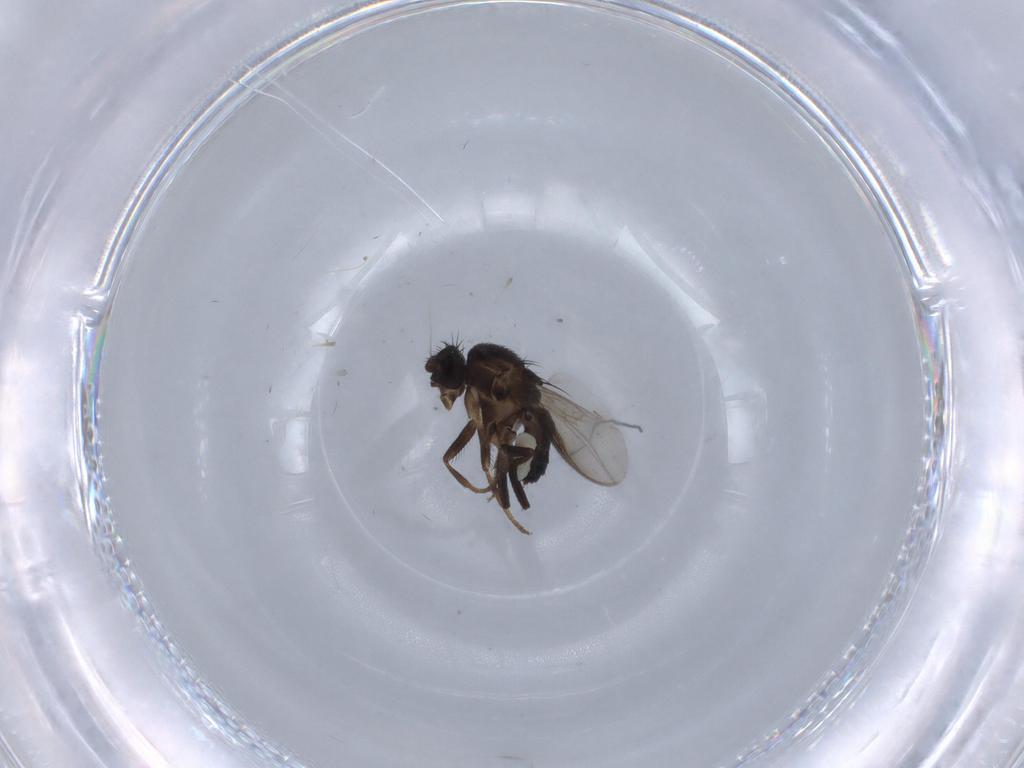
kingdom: Animalia
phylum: Arthropoda
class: Insecta
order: Diptera
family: Sphaeroceridae
